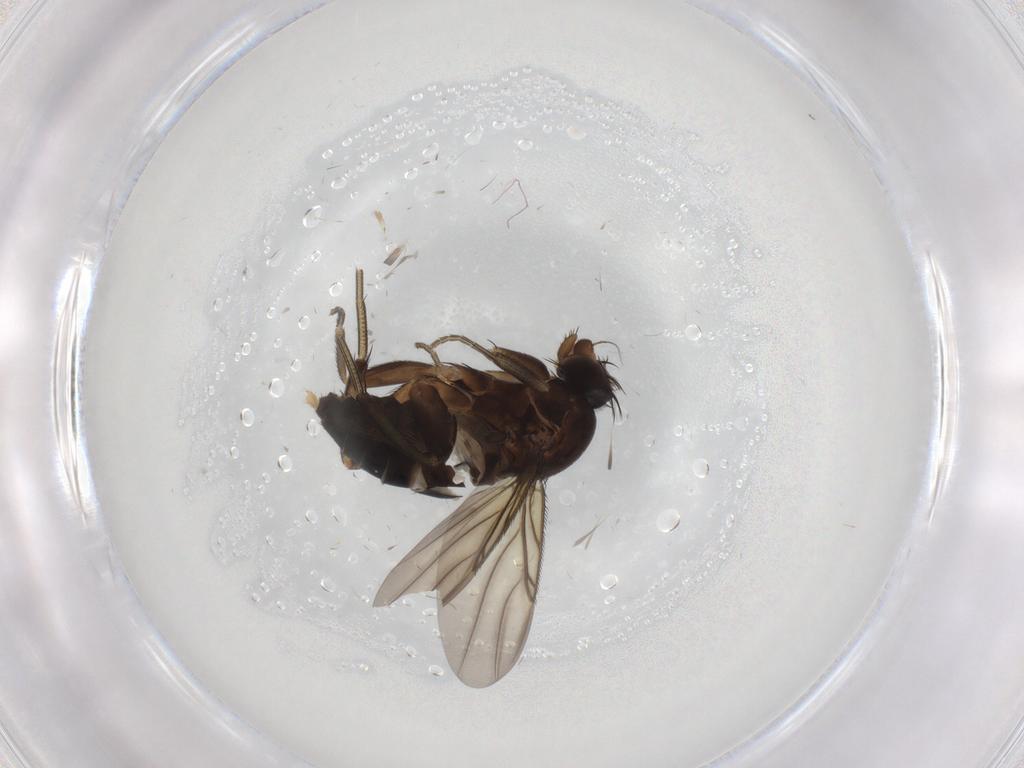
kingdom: Animalia
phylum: Arthropoda
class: Insecta
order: Diptera
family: Phoridae
